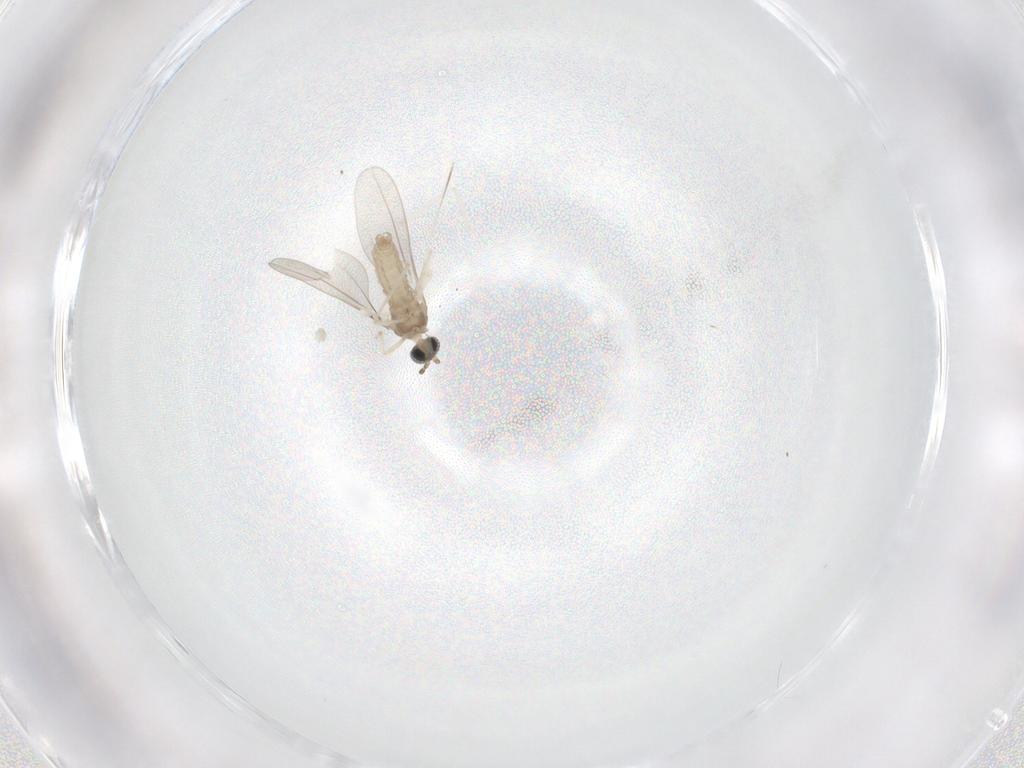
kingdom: Animalia
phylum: Arthropoda
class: Insecta
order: Diptera
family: Cecidomyiidae
